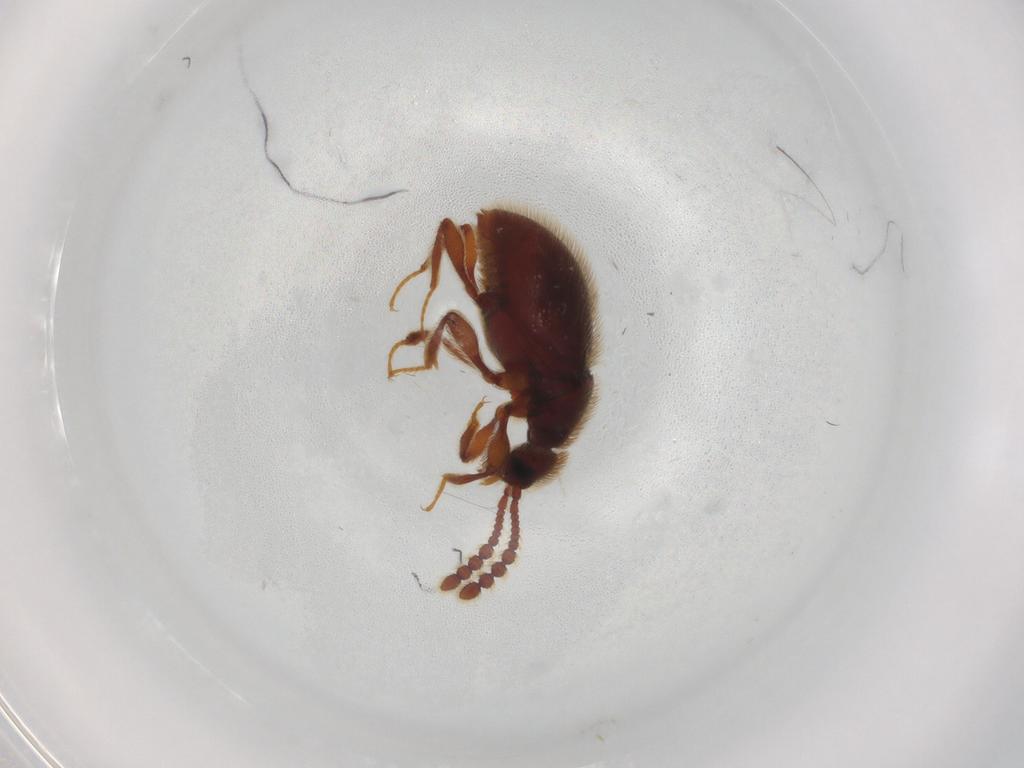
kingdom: Animalia
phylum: Arthropoda
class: Insecta
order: Coleoptera
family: Staphylinidae
